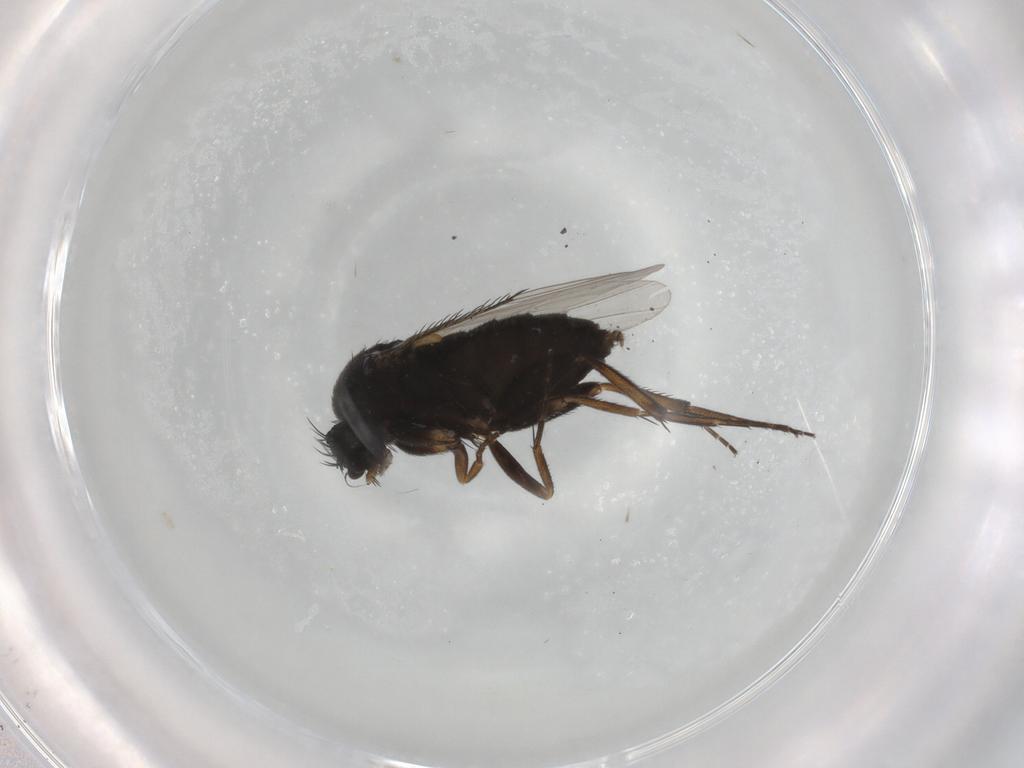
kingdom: Animalia
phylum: Arthropoda
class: Insecta
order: Diptera
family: Phoridae
